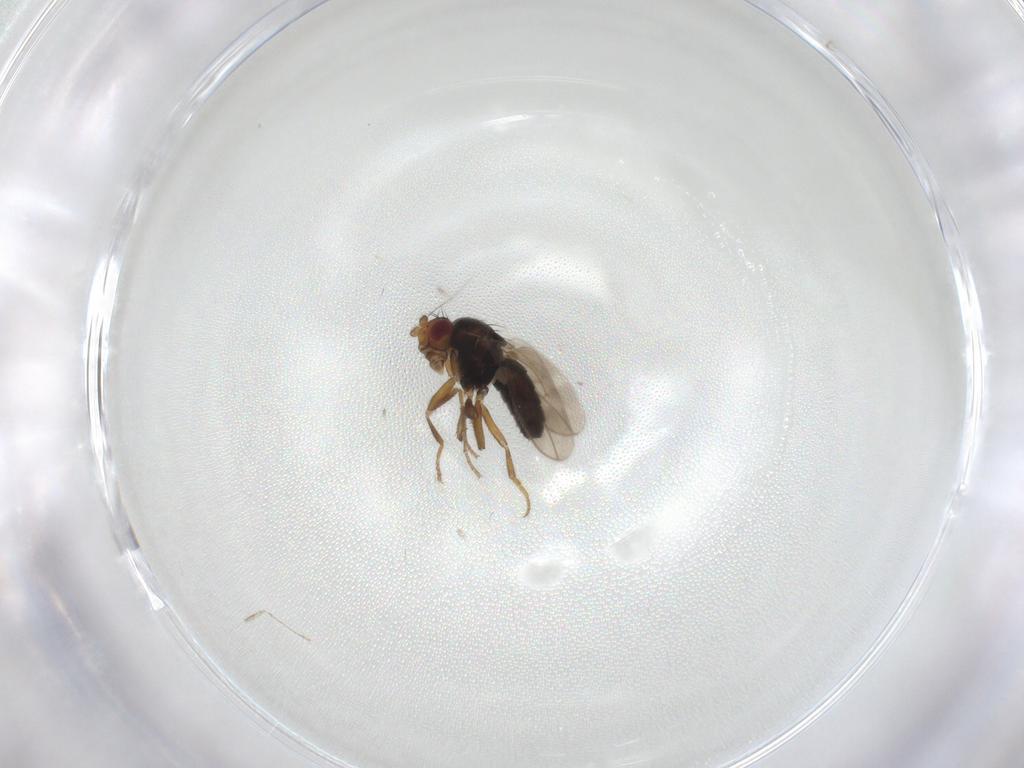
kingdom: Animalia
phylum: Arthropoda
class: Insecta
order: Diptera
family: Sphaeroceridae
